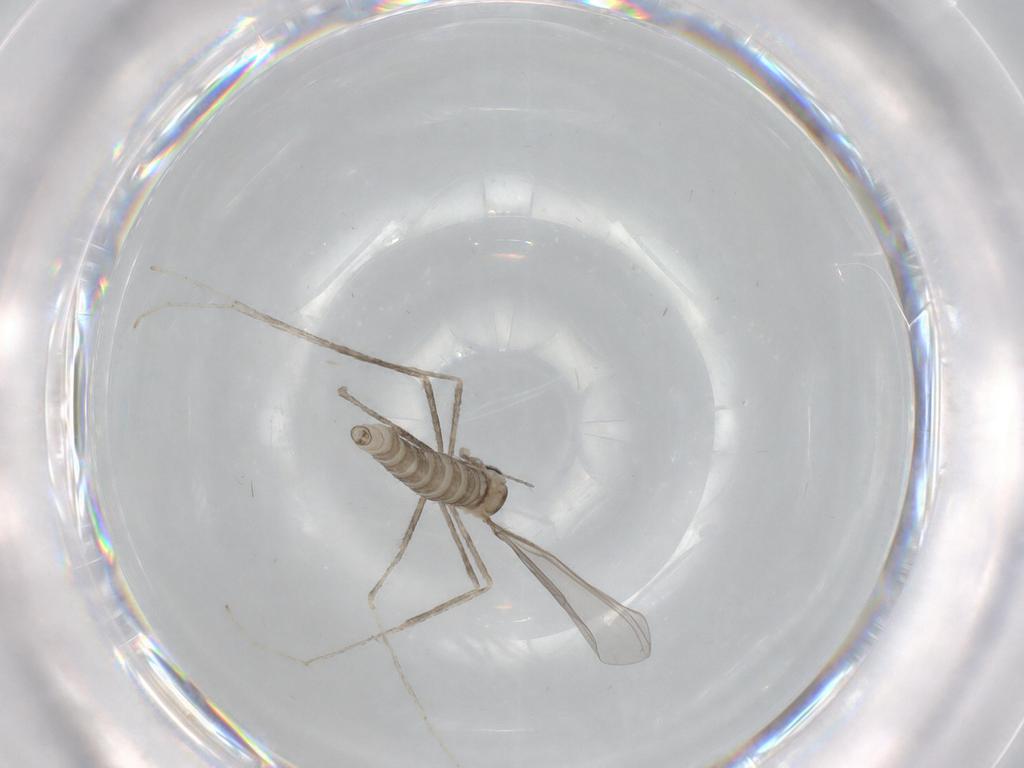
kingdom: Animalia
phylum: Arthropoda
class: Insecta
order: Diptera
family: Cecidomyiidae
